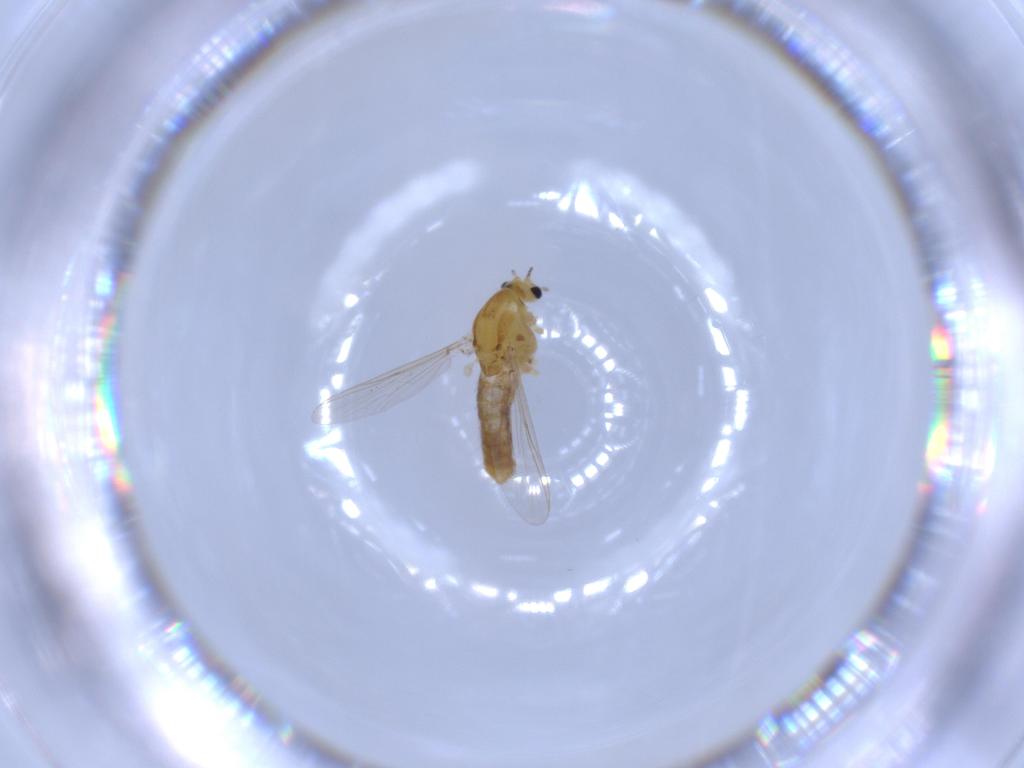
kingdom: Animalia
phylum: Arthropoda
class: Insecta
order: Diptera
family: Chironomidae
